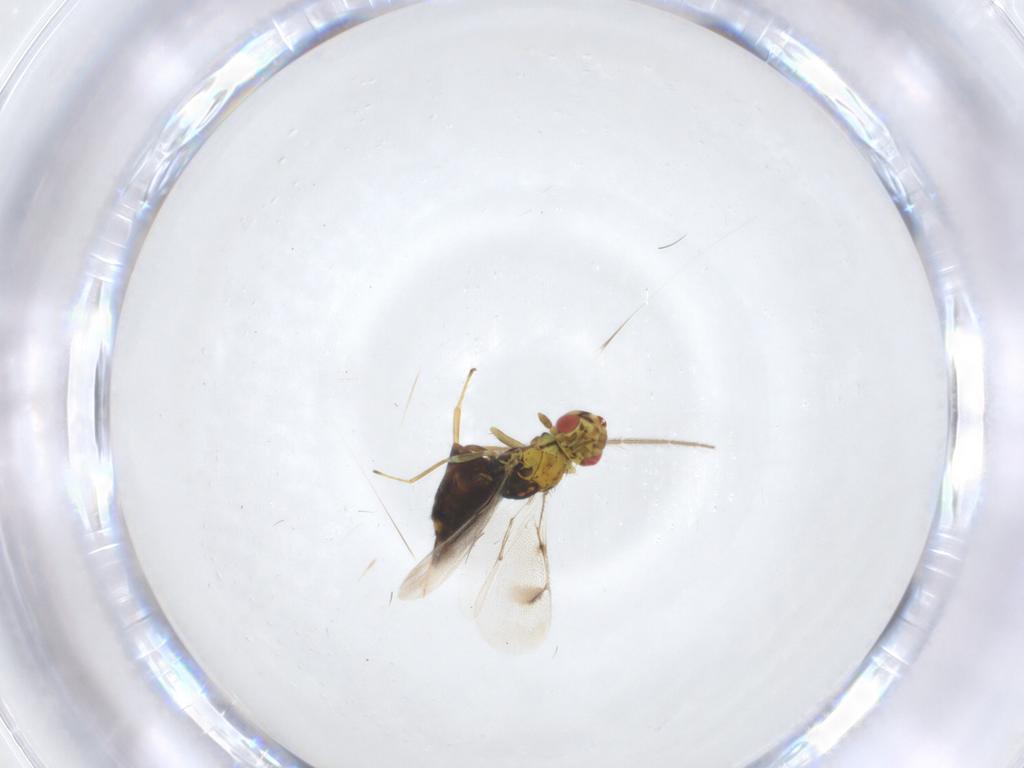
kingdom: Animalia
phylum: Arthropoda
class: Insecta
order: Hymenoptera
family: Eulophidae
